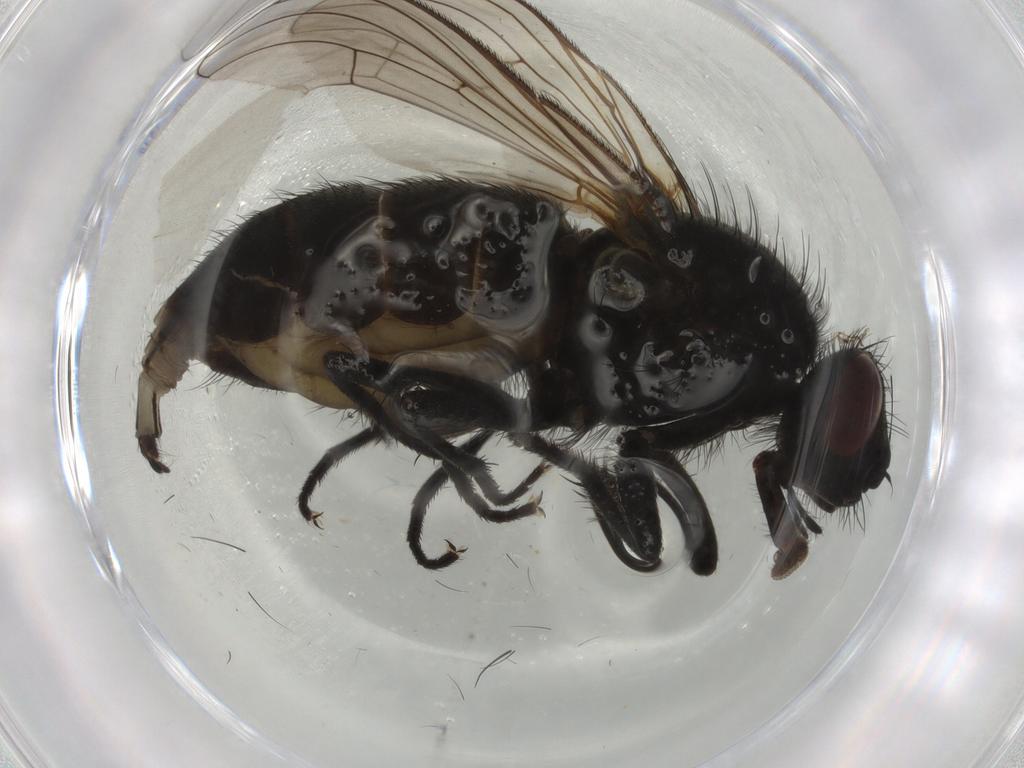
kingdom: Animalia
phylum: Arthropoda
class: Insecta
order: Diptera
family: Muscidae
